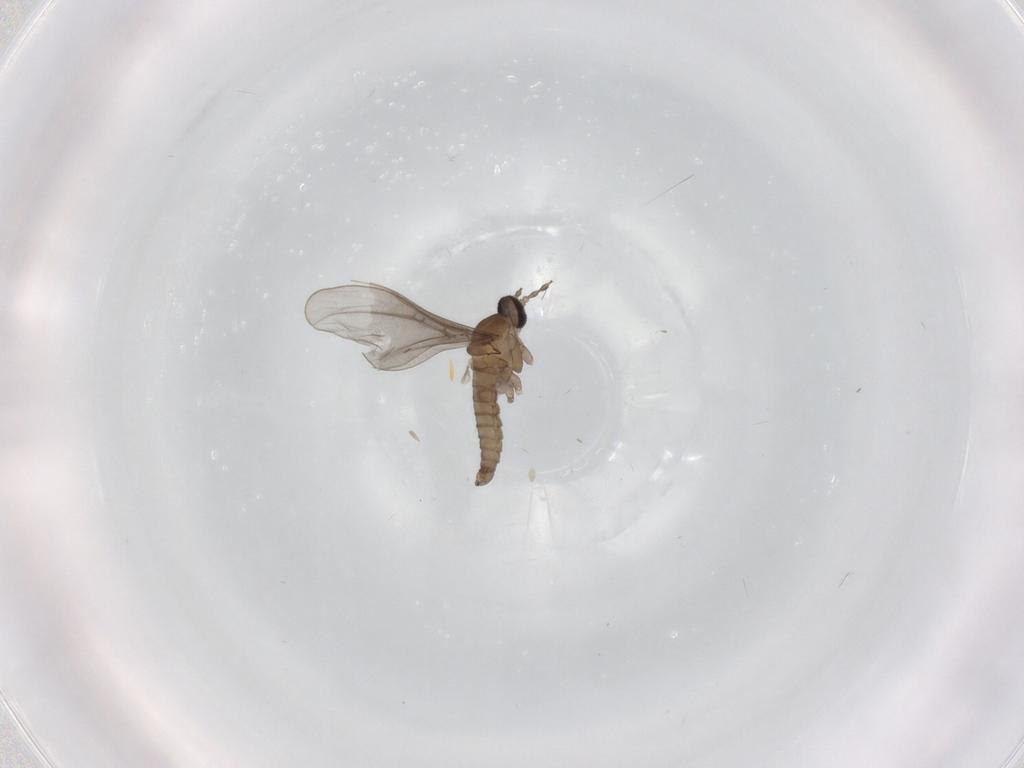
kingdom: Animalia
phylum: Arthropoda
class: Insecta
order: Diptera
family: Cecidomyiidae
